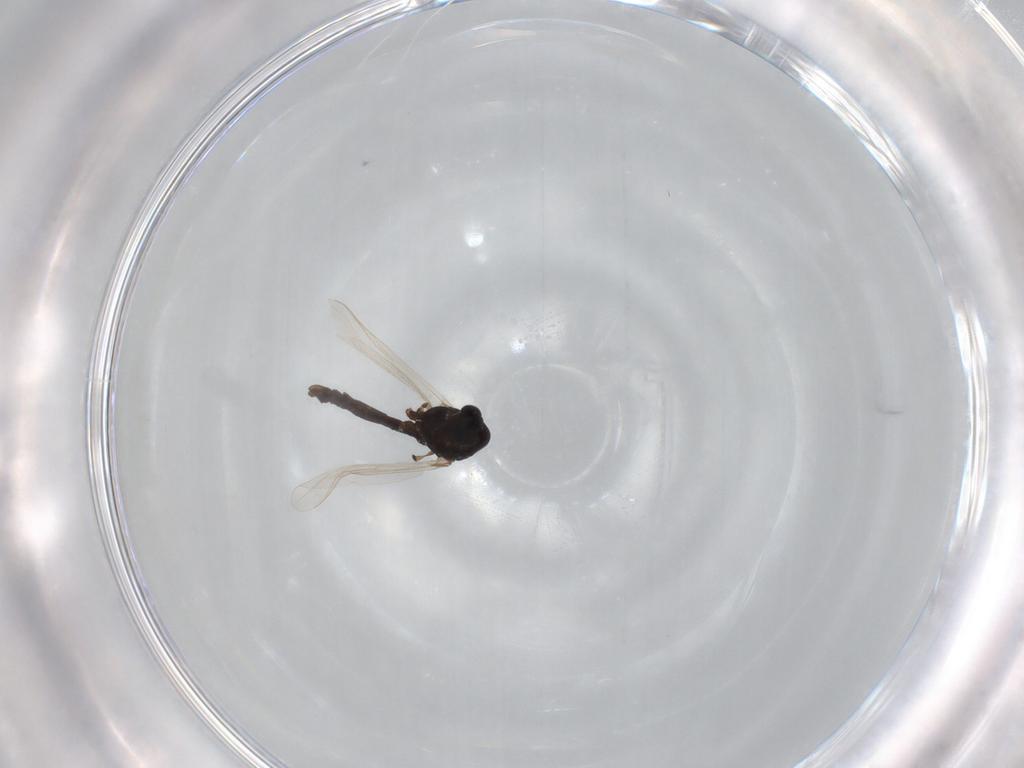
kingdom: Animalia
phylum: Arthropoda
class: Insecta
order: Diptera
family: Chironomidae
